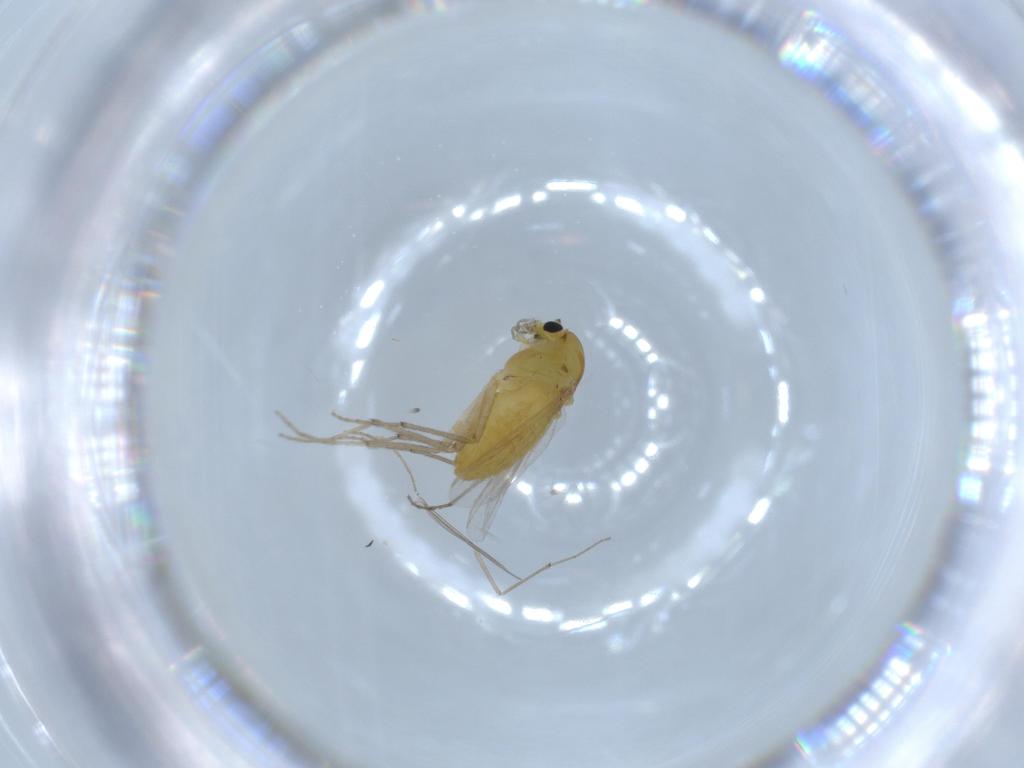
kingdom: Animalia
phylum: Arthropoda
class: Insecta
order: Diptera
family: Chironomidae
